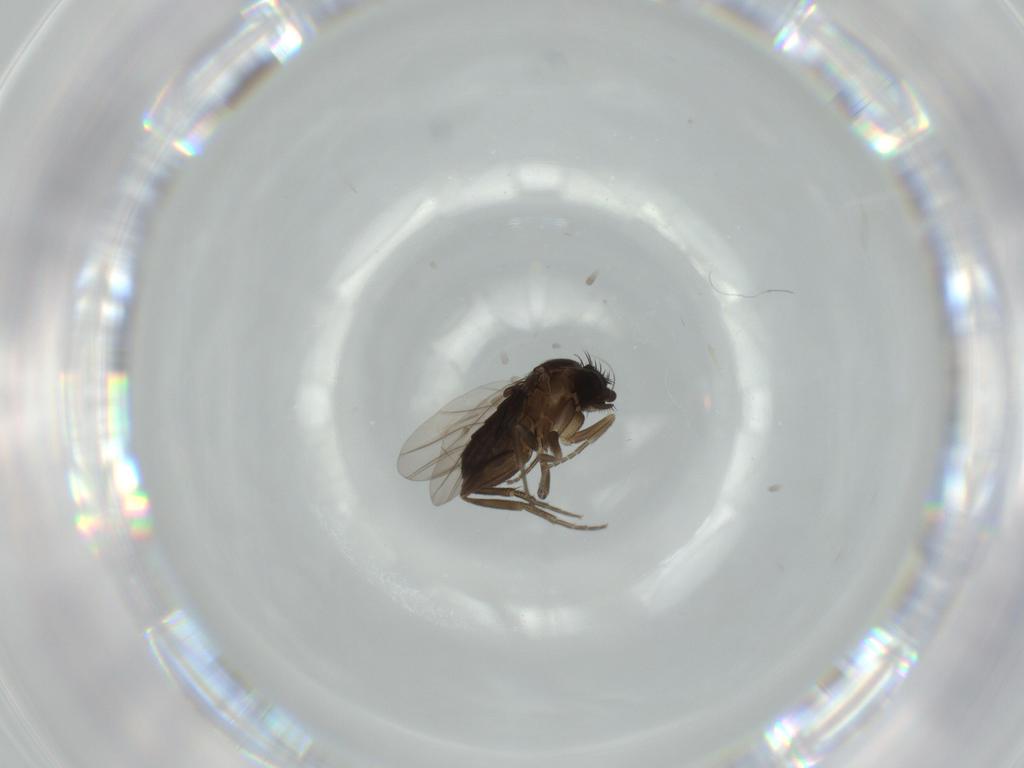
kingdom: Animalia
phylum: Arthropoda
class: Insecta
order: Diptera
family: Phoridae
